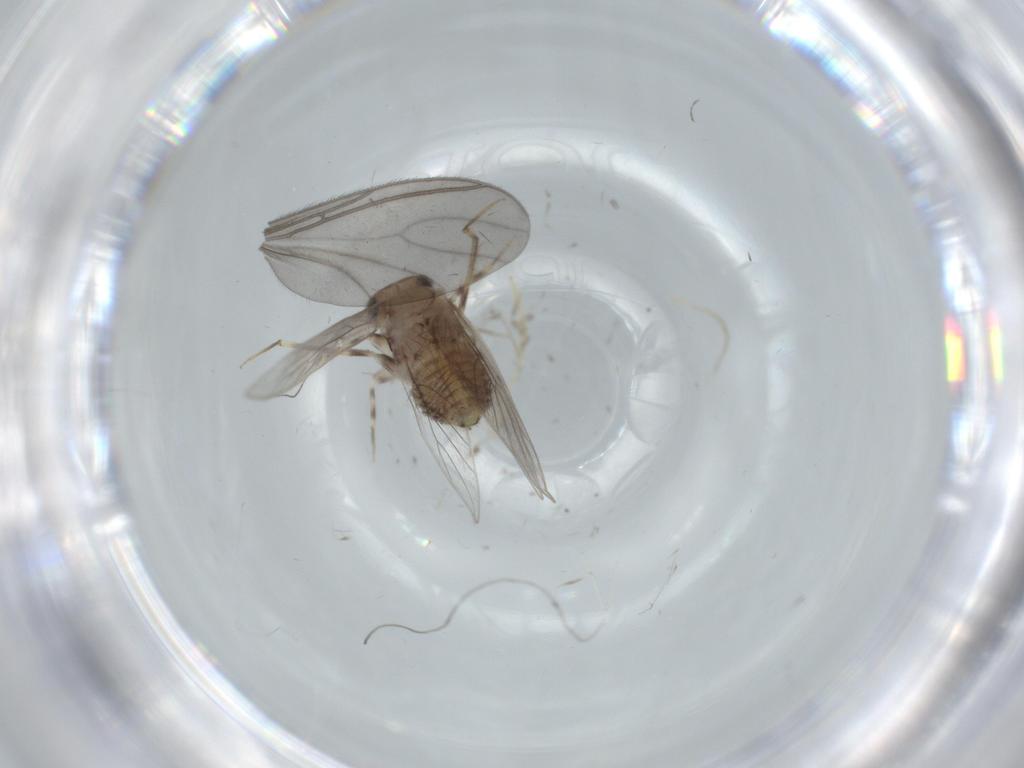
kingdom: Animalia
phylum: Arthropoda
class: Insecta
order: Psocodea
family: Lepidopsocidae
